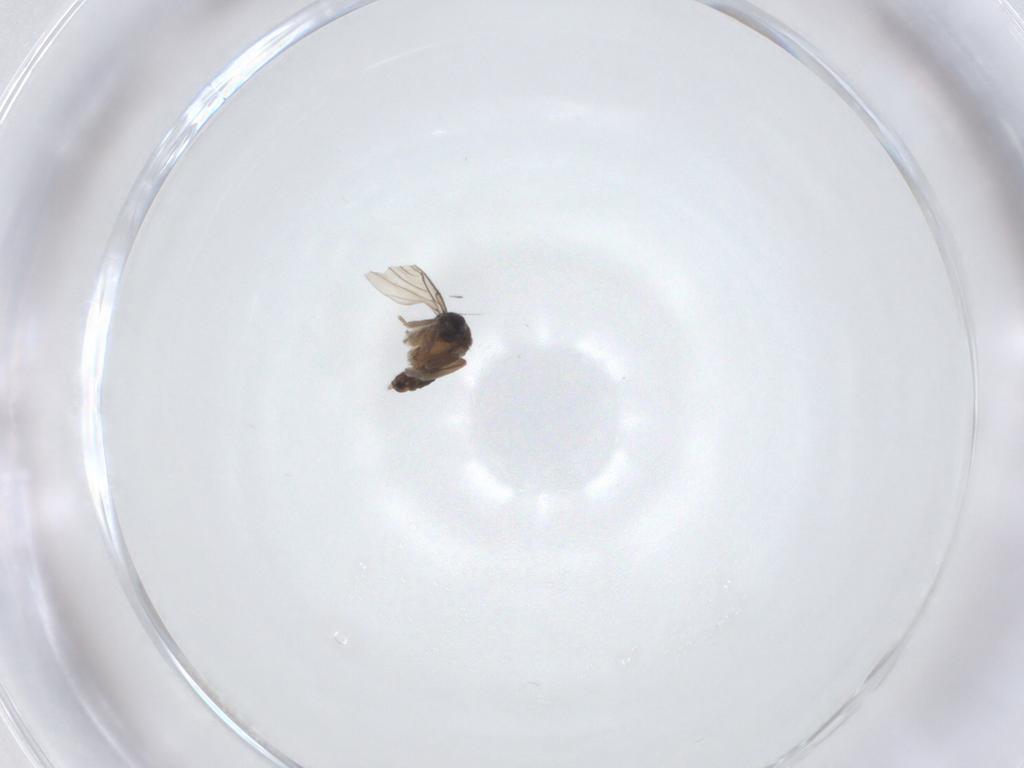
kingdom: Animalia
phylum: Arthropoda
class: Insecta
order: Diptera
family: Phoridae
